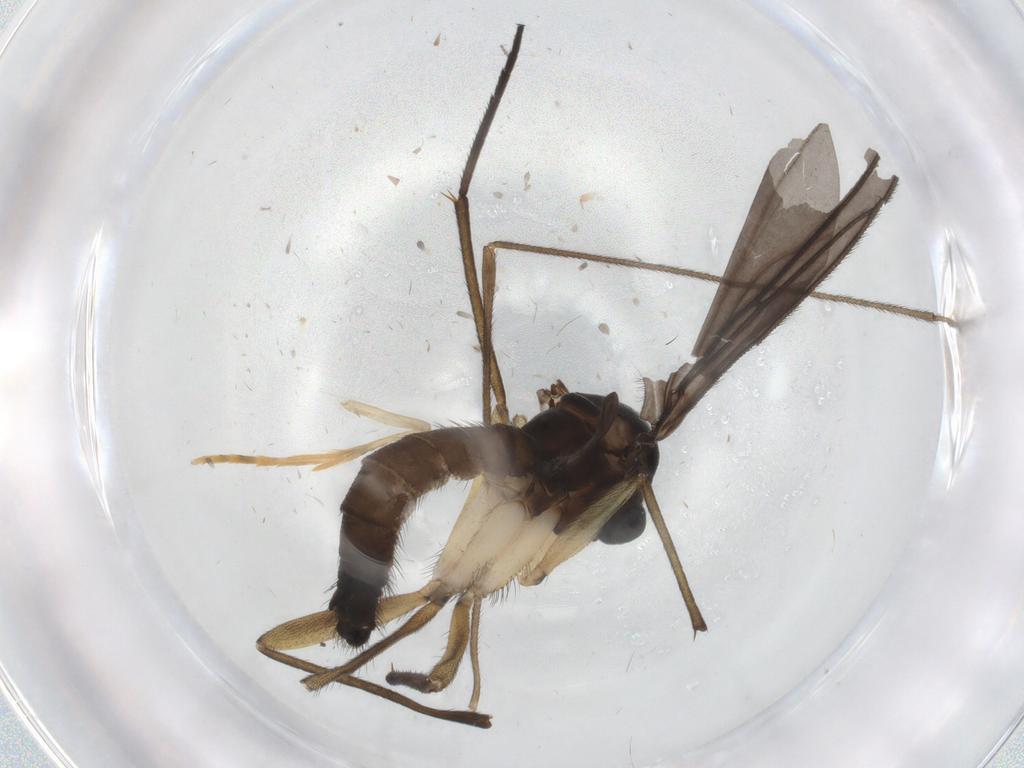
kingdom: Animalia
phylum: Arthropoda
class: Insecta
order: Diptera
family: Limoniidae
